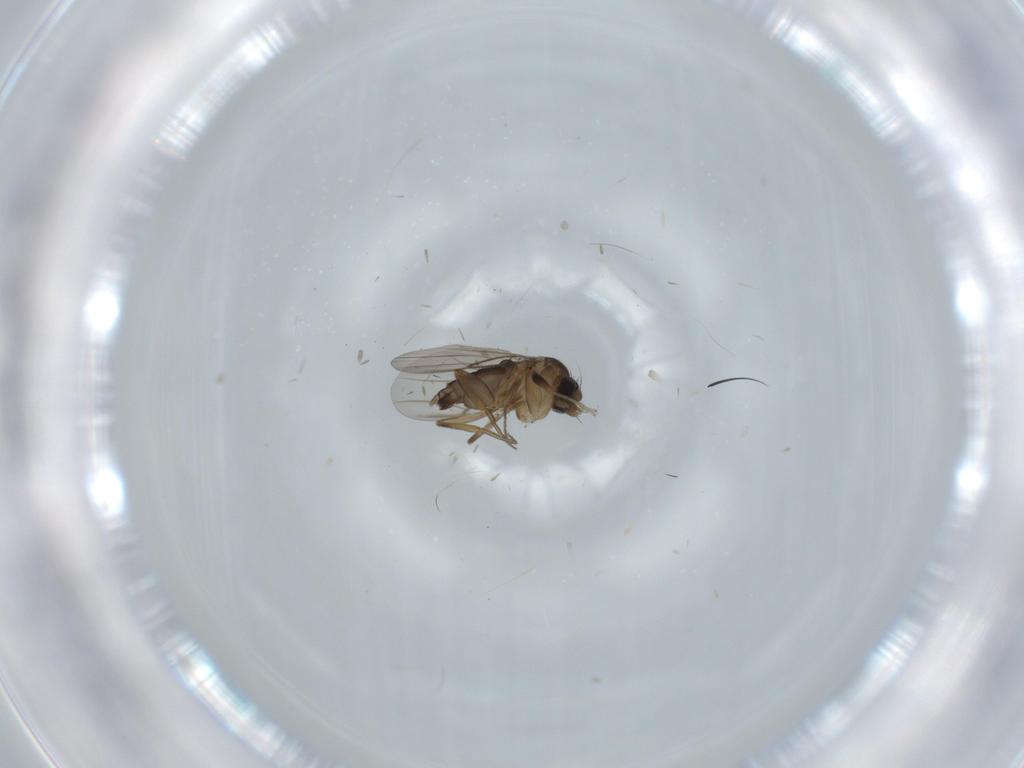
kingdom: Animalia
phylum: Arthropoda
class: Insecta
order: Diptera
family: Phoridae
